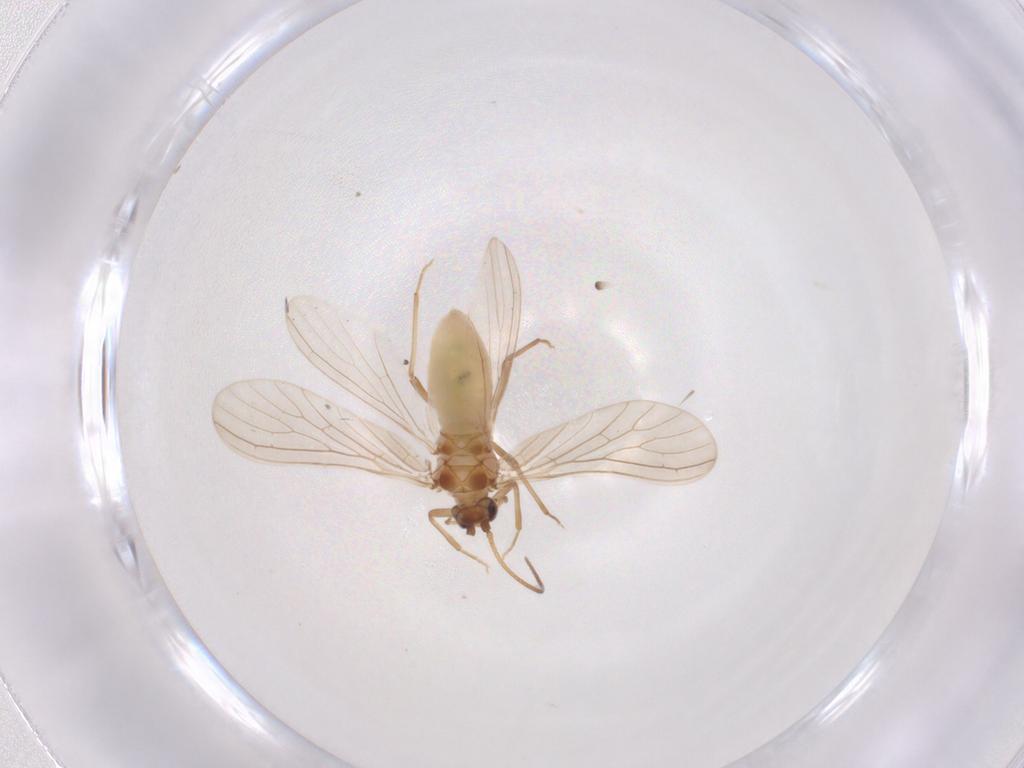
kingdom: Animalia
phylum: Arthropoda
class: Insecta
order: Neuroptera
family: Coniopterygidae
